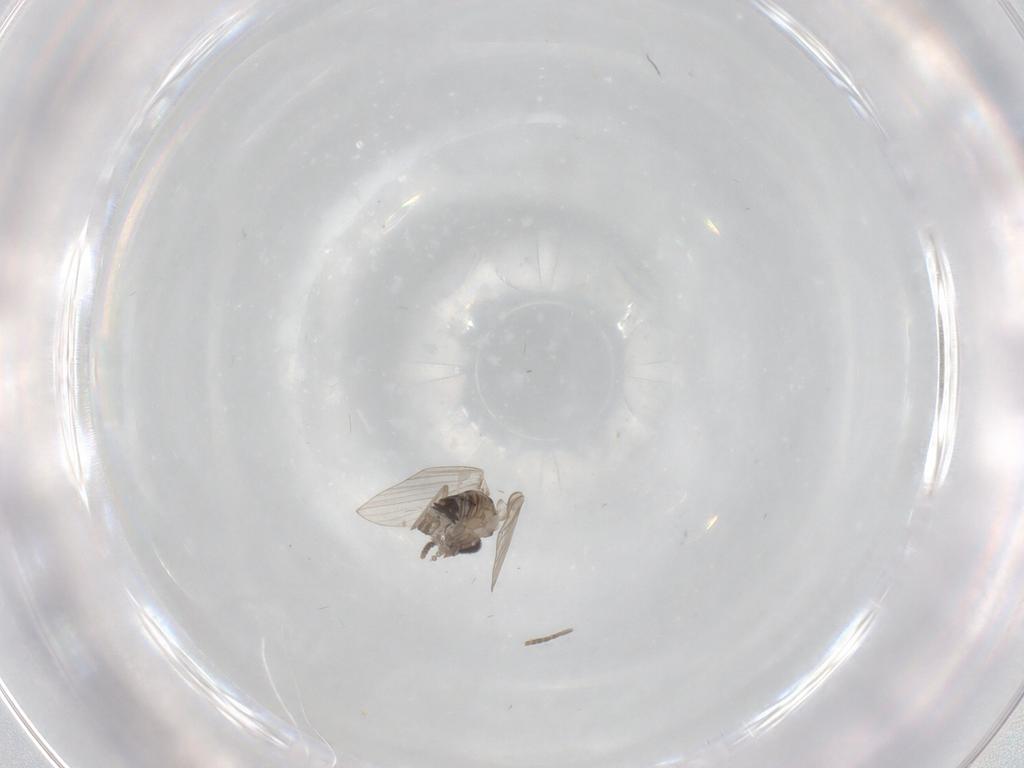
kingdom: Animalia
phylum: Arthropoda
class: Insecta
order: Diptera
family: Psychodidae
